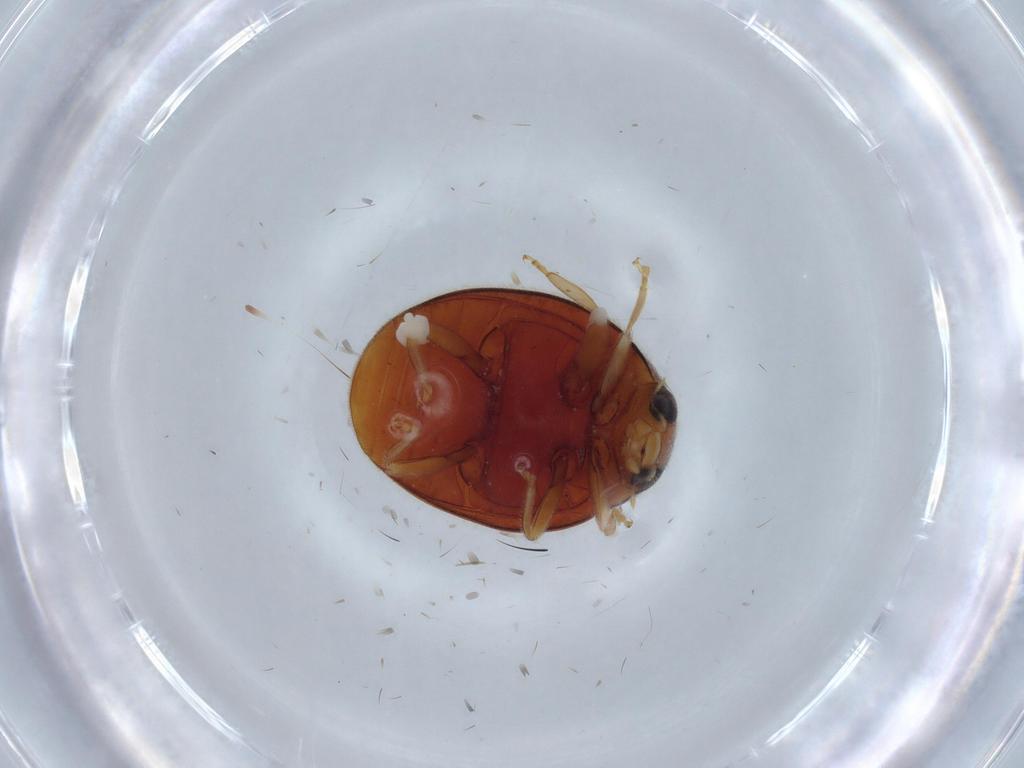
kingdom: Animalia
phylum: Arthropoda
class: Insecta
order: Coleoptera
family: Coccinellidae
